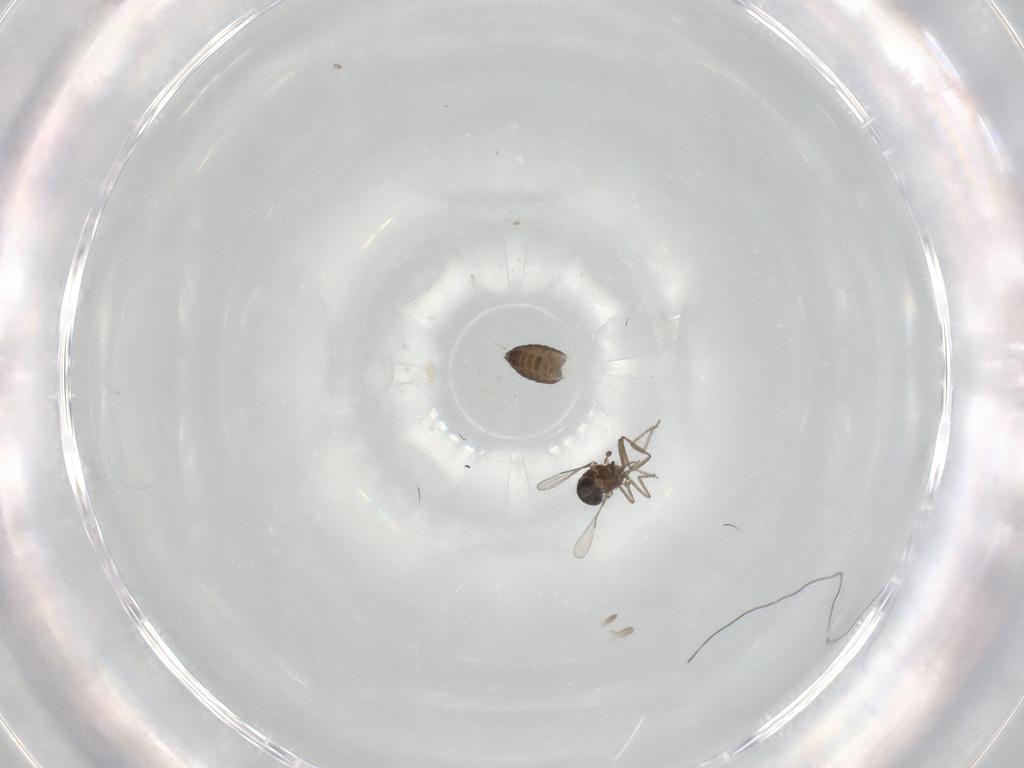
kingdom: Animalia
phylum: Arthropoda
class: Insecta
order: Diptera
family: Ceratopogonidae
